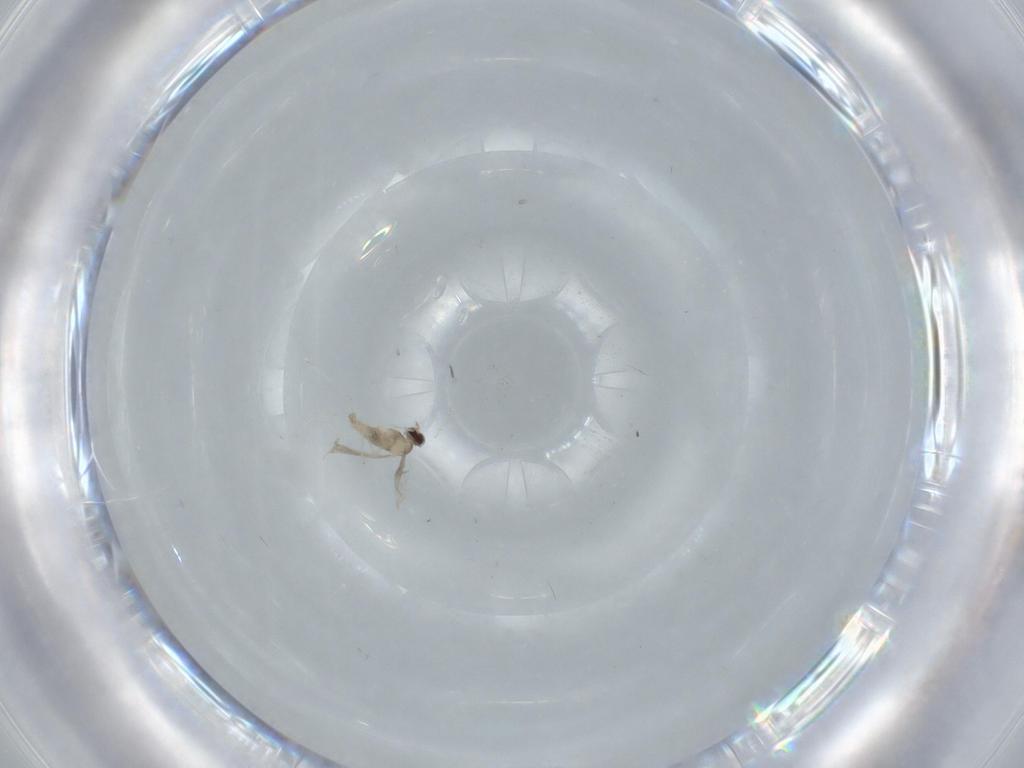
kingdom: Animalia
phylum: Arthropoda
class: Insecta
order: Diptera
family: Cecidomyiidae
